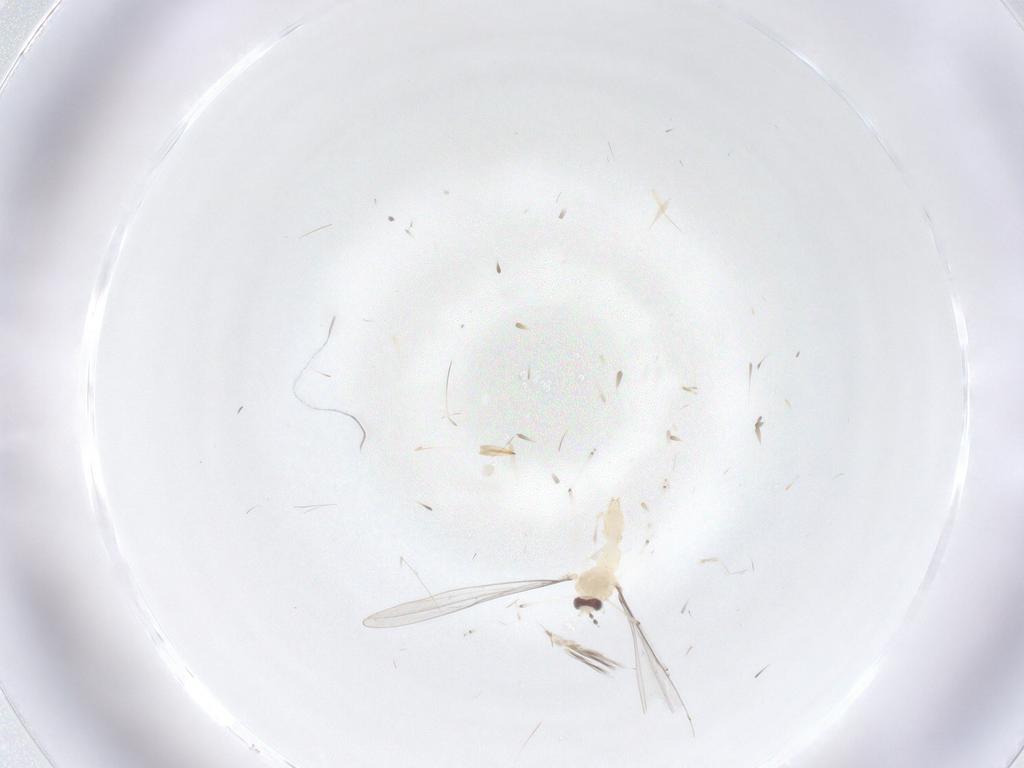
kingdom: Animalia
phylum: Arthropoda
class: Insecta
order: Diptera
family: Cecidomyiidae
